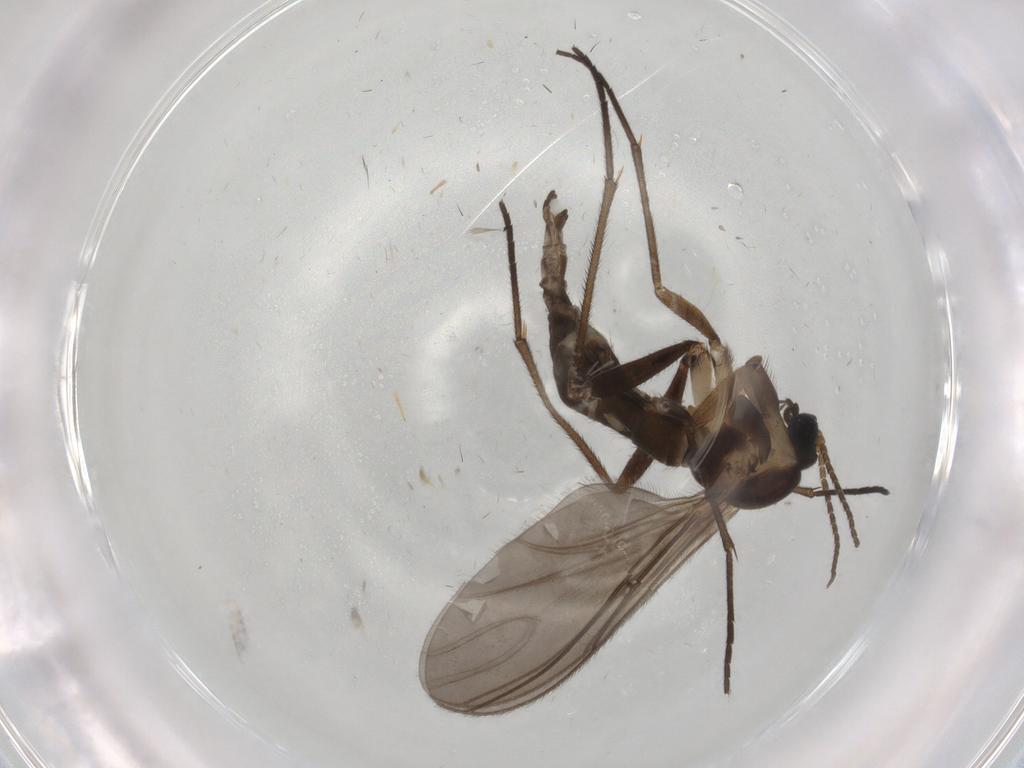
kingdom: Animalia
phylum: Arthropoda
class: Insecta
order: Diptera
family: Sciaridae
